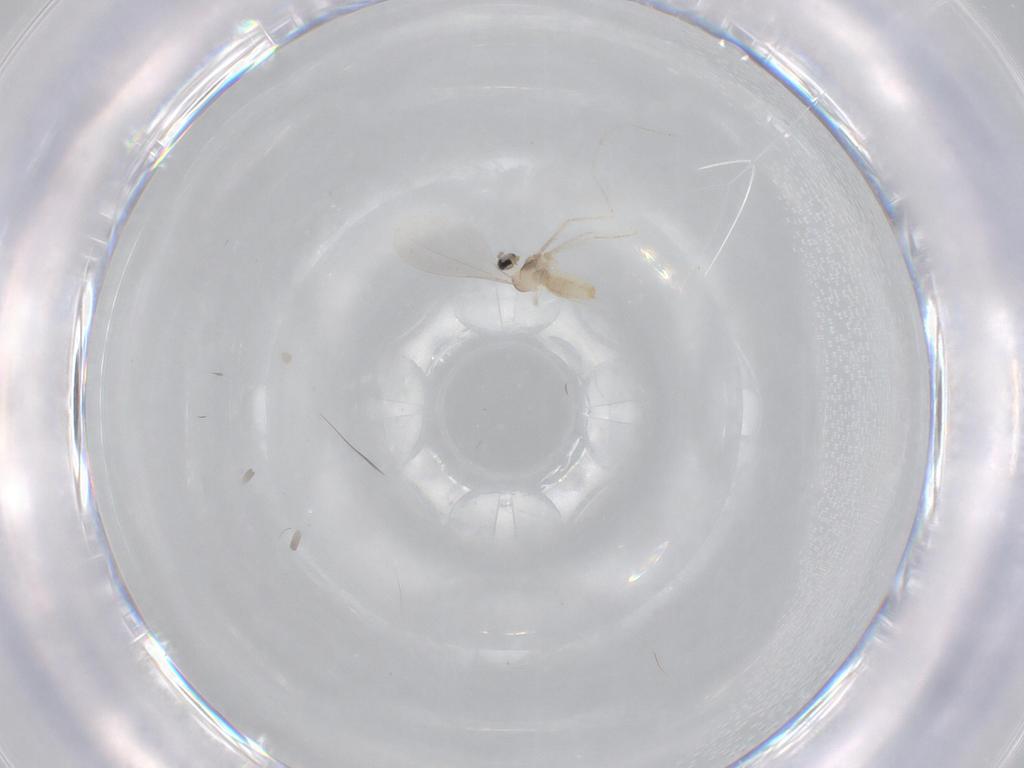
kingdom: Animalia
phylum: Arthropoda
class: Insecta
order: Diptera
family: Cecidomyiidae
